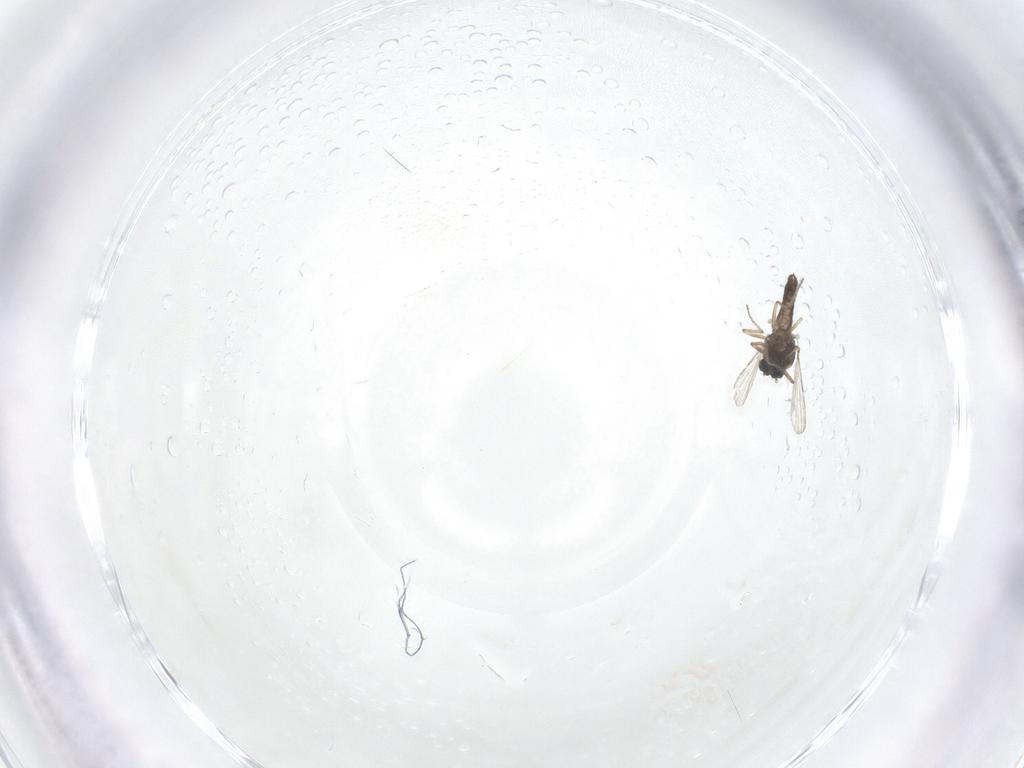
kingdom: Animalia
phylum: Arthropoda
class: Insecta
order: Diptera
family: Ceratopogonidae
